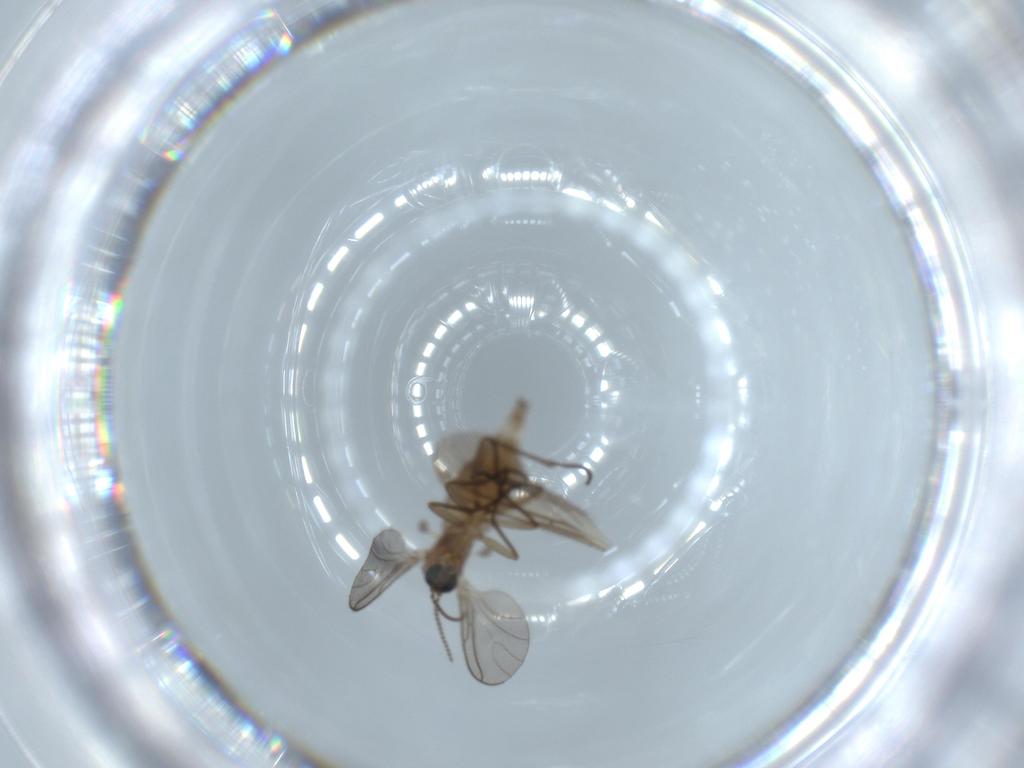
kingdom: Animalia
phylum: Arthropoda
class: Insecta
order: Diptera
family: Sciaridae
